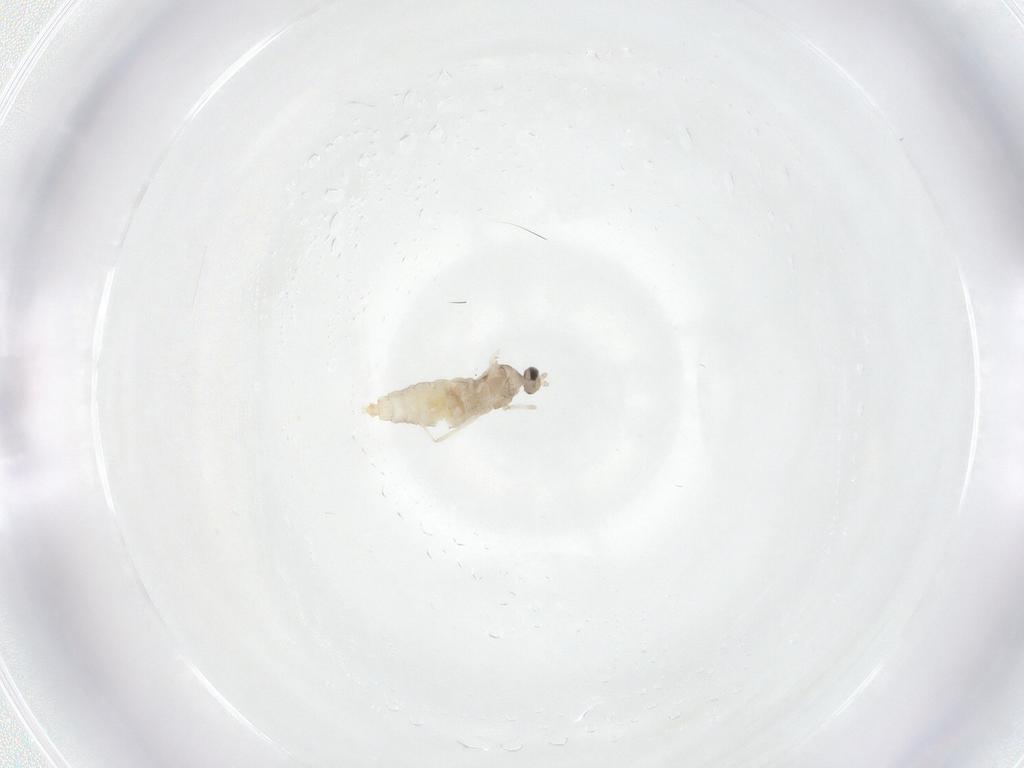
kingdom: Animalia
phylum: Arthropoda
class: Insecta
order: Diptera
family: Cecidomyiidae
